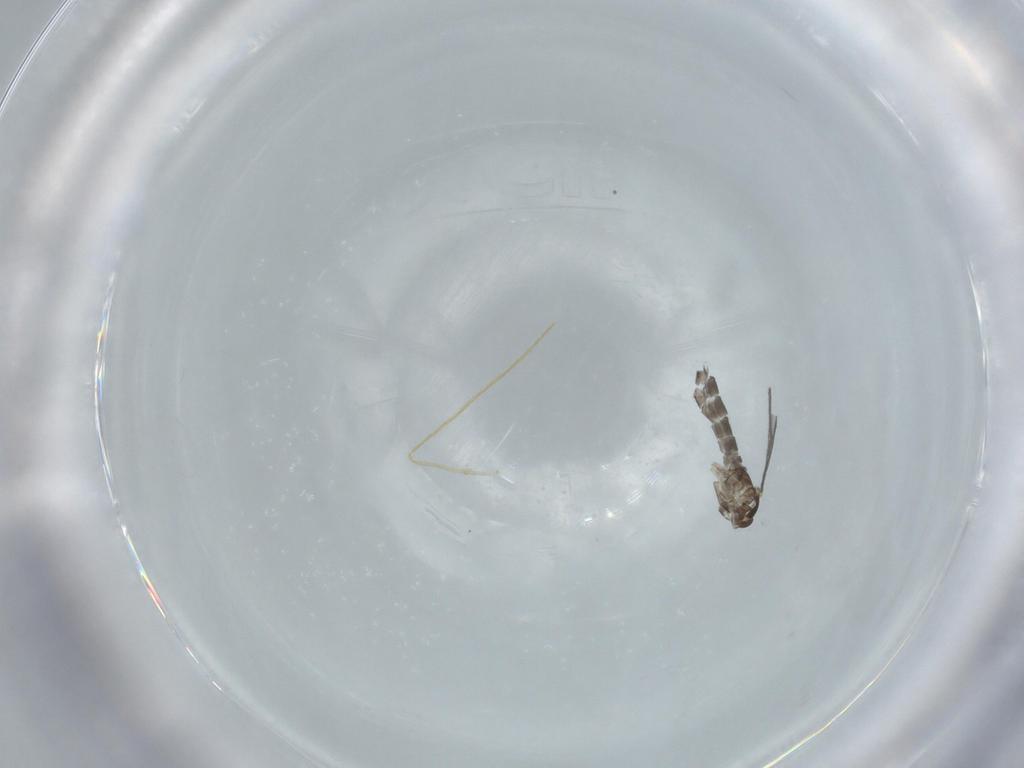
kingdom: Animalia
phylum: Arthropoda
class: Insecta
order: Diptera
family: Sciaridae
